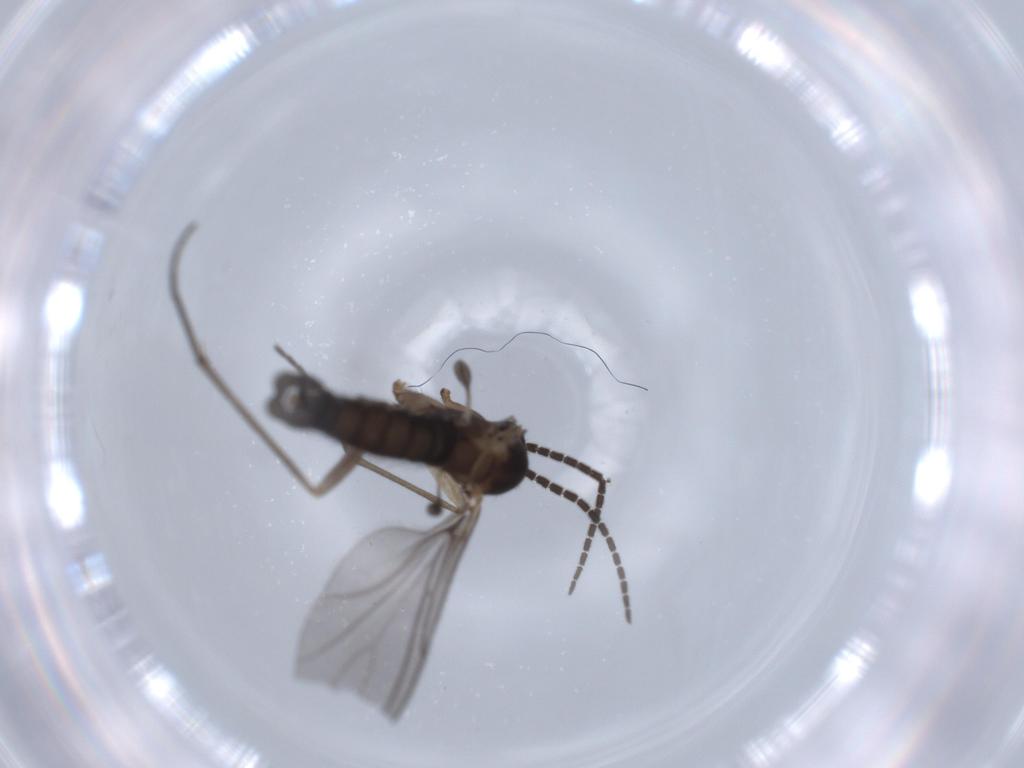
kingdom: Animalia
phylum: Arthropoda
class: Insecta
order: Diptera
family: Sciaridae
